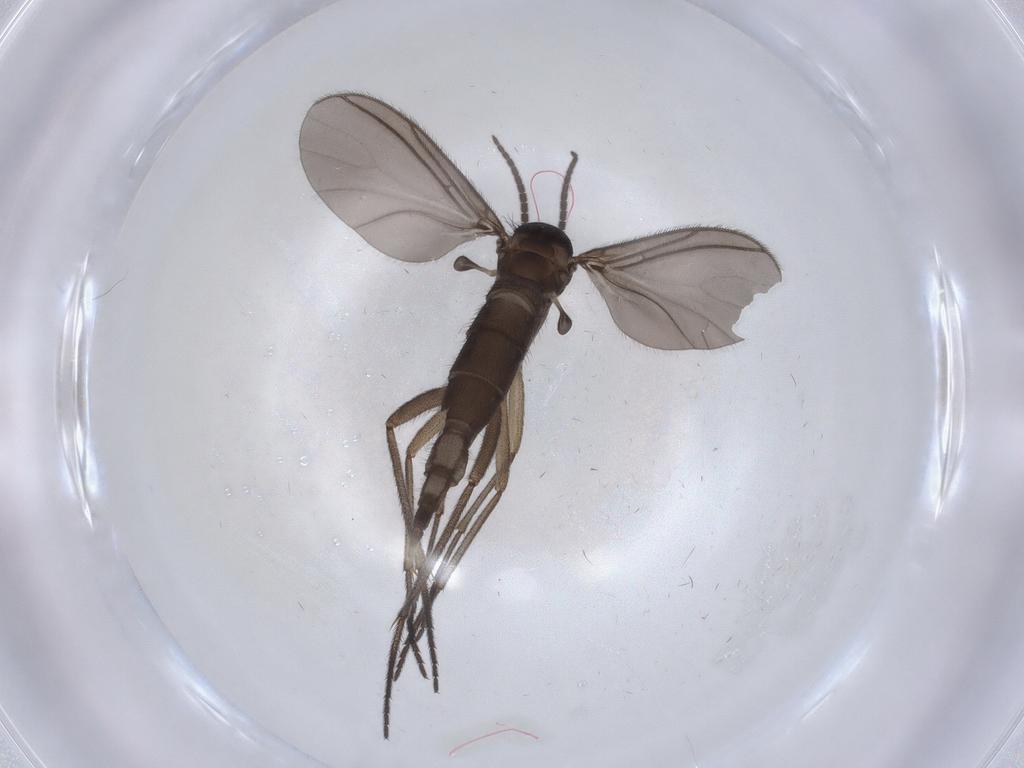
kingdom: Animalia
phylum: Arthropoda
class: Insecta
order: Diptera
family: Sciaridae
